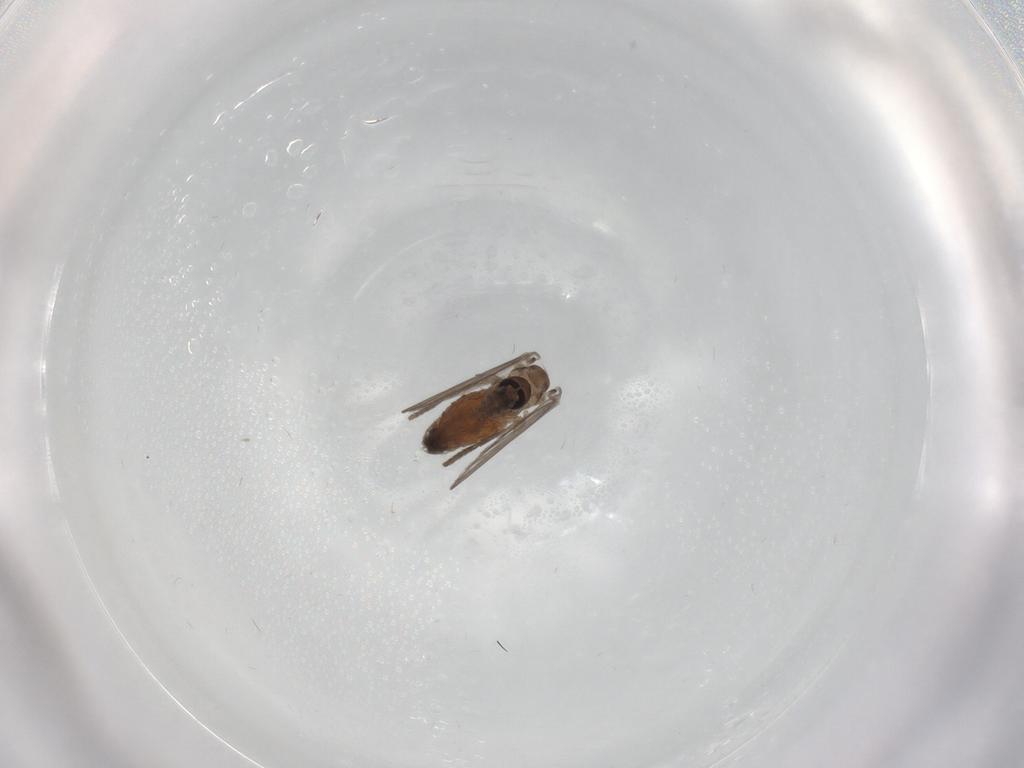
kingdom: Animalia
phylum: Arthropoda
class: Insecta
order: Diptera
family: Psychodidae
